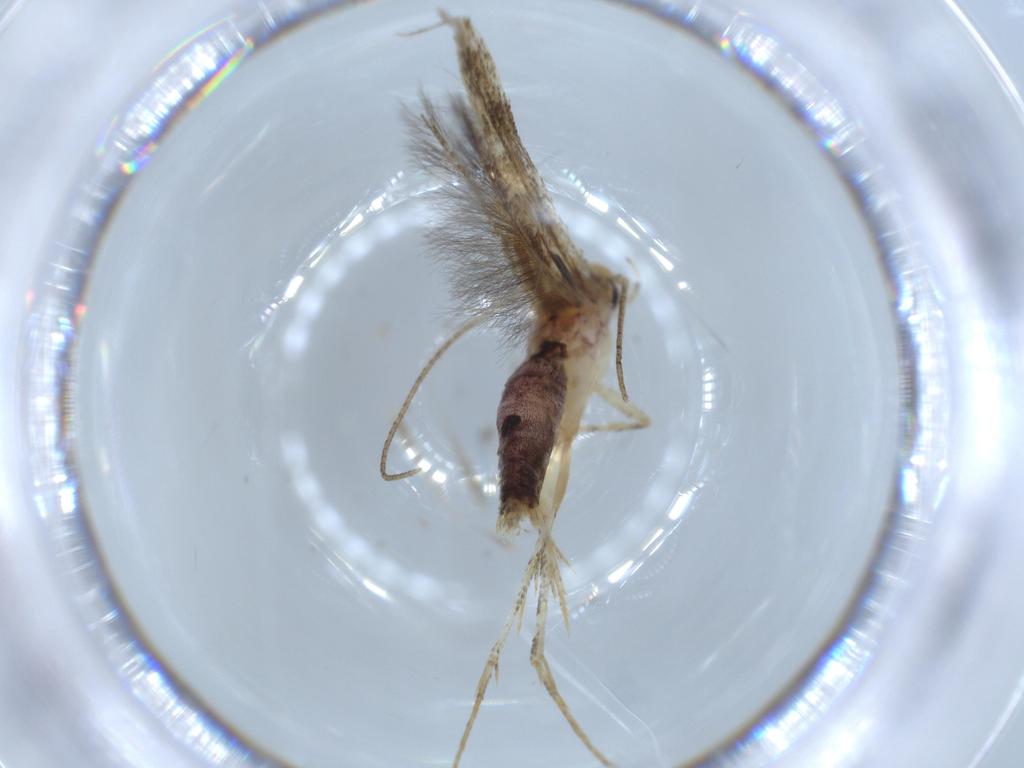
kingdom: Animalia
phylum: Arthropoda
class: Insecta
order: Lepidoptera
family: Lyonetiidae
